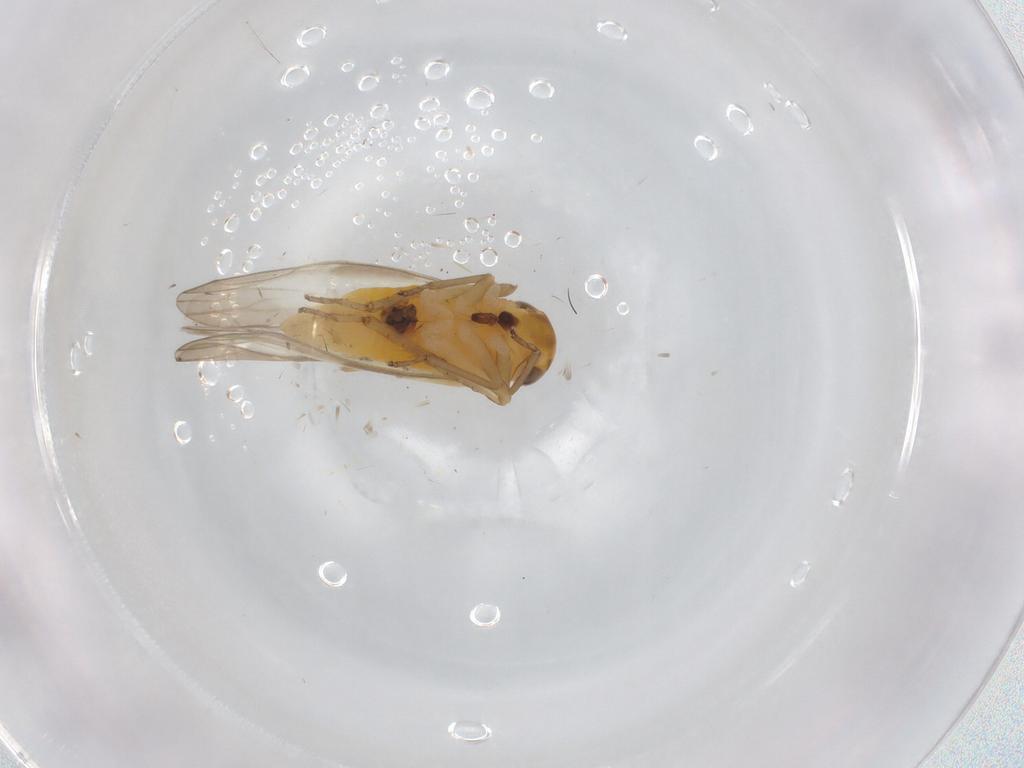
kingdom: Animalia
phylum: Arthropoda
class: Insecta
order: Hemiptera
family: Cicadellidae
